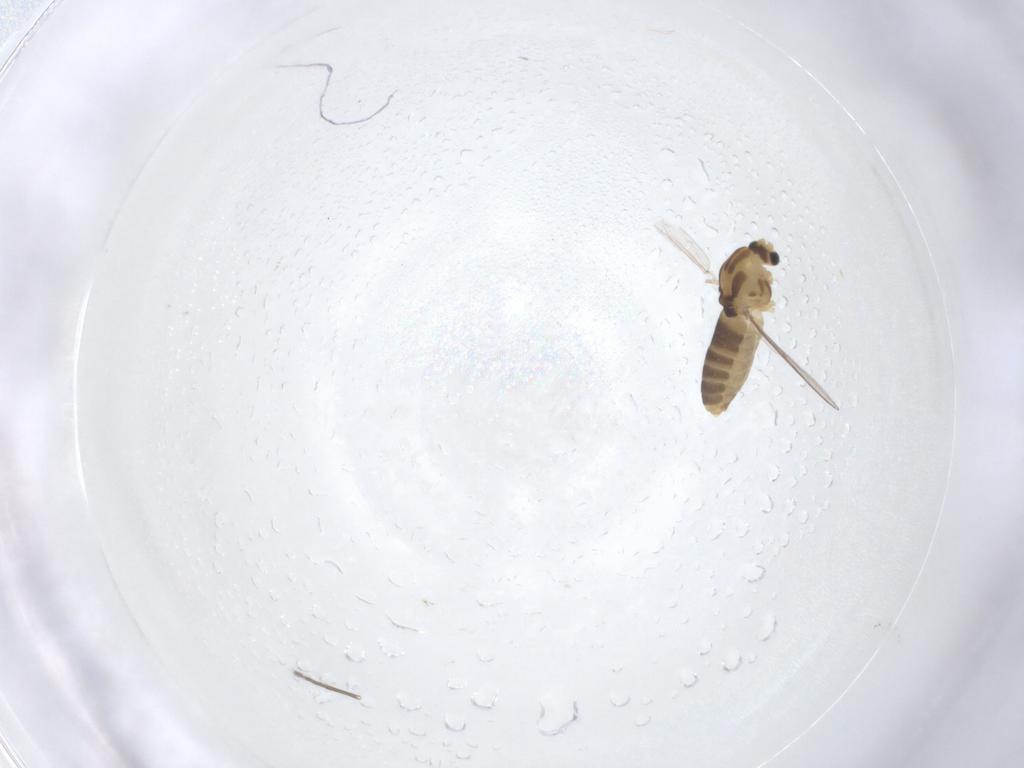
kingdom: Animalia
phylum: Arthropoda
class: Insecta
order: Diptera
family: Chironomidae
